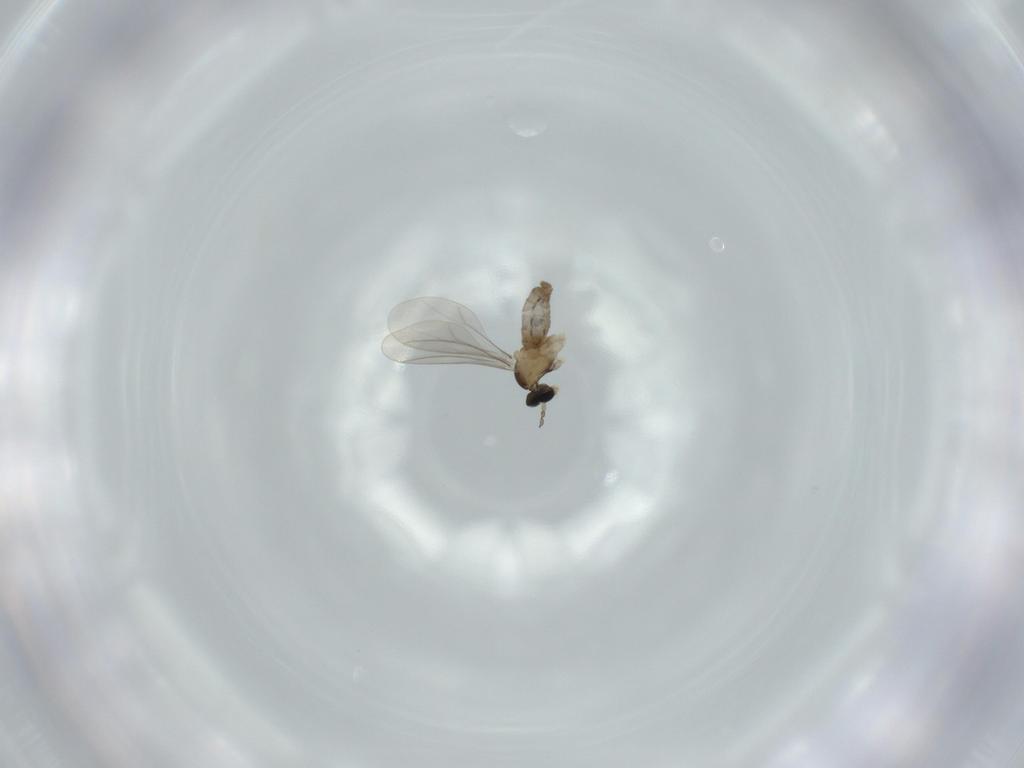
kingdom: Animalia
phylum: Arthropoda
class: Insecta
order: Diptera
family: Cecidomyiidae
